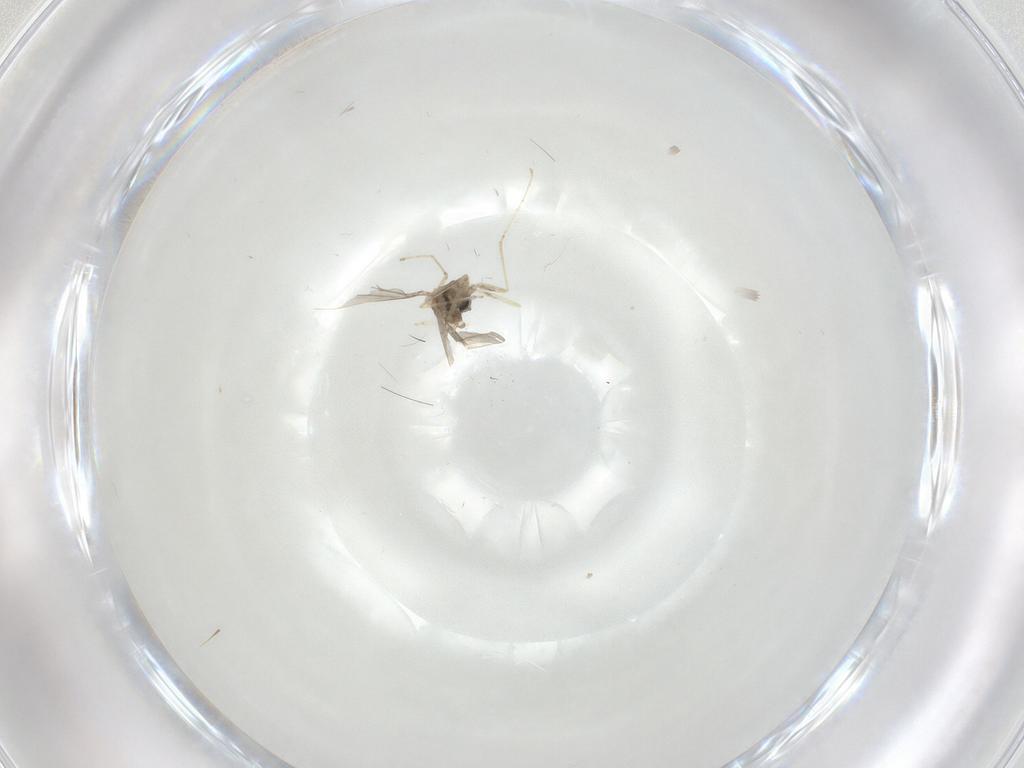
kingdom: Animalia
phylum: Arthropoda
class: Insecta
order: Diptera
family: Cecidomyiidae
